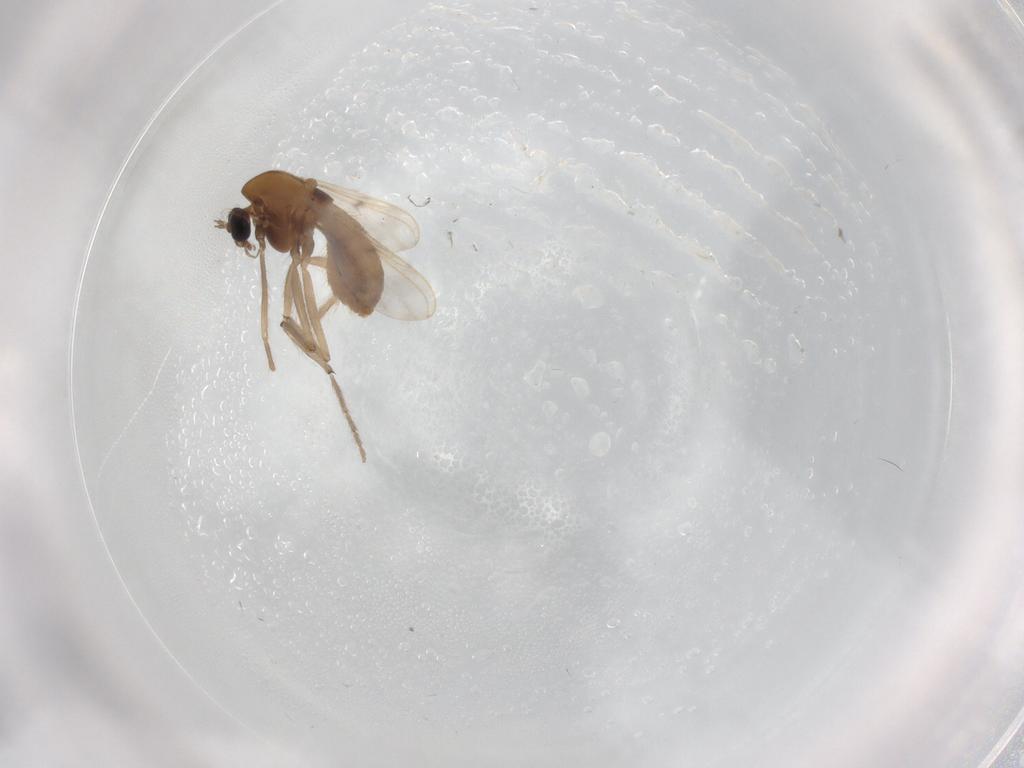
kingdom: Animalia
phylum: Arthropoda
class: Insecta
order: Diptera
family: Chironomidae
